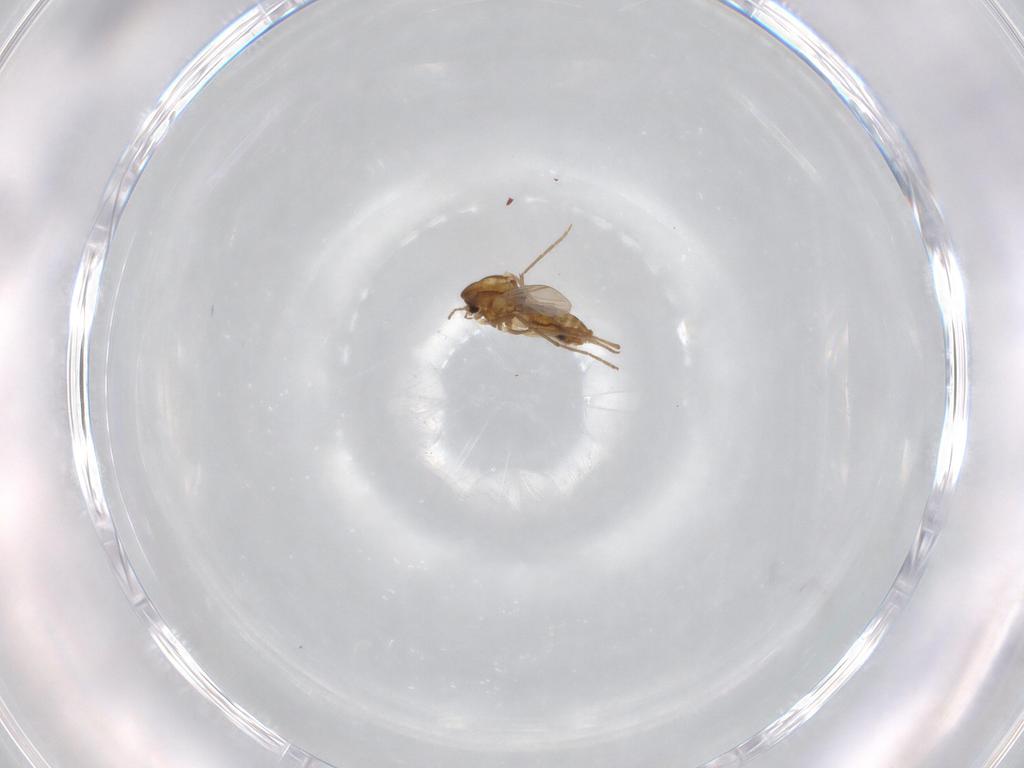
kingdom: Animalia
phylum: Arthropoda
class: Insecta
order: Diptera
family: Chironomidae
